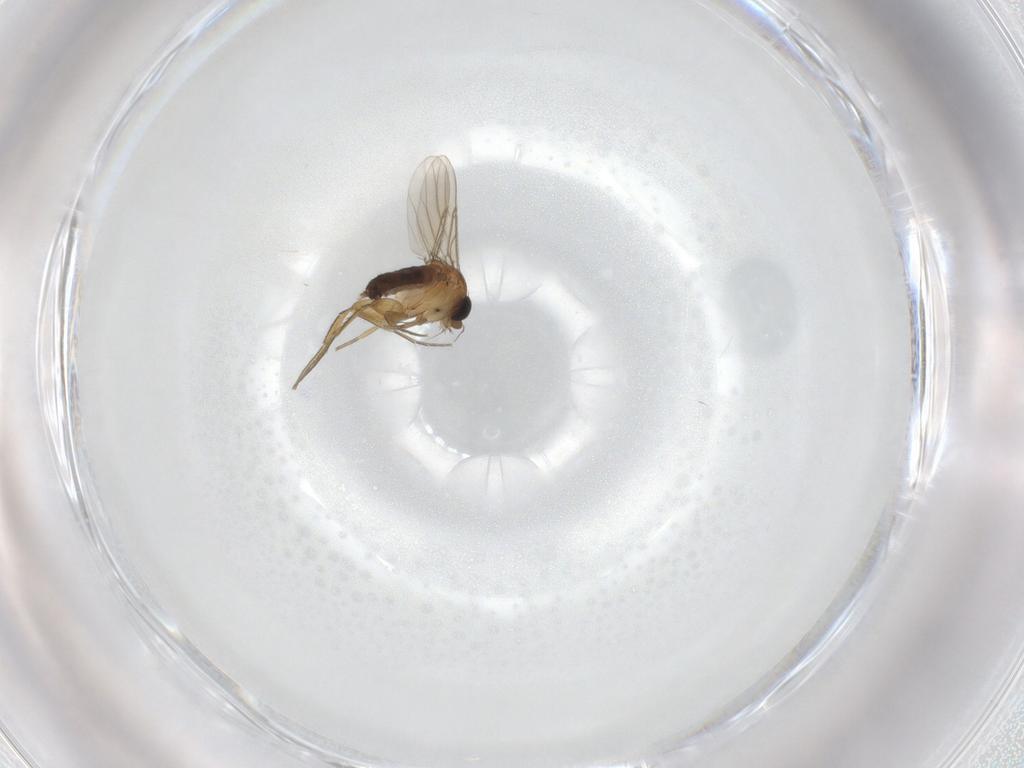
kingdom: Animalia
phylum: Arthropoda
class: Insecta
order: Diptera
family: Phoridae
